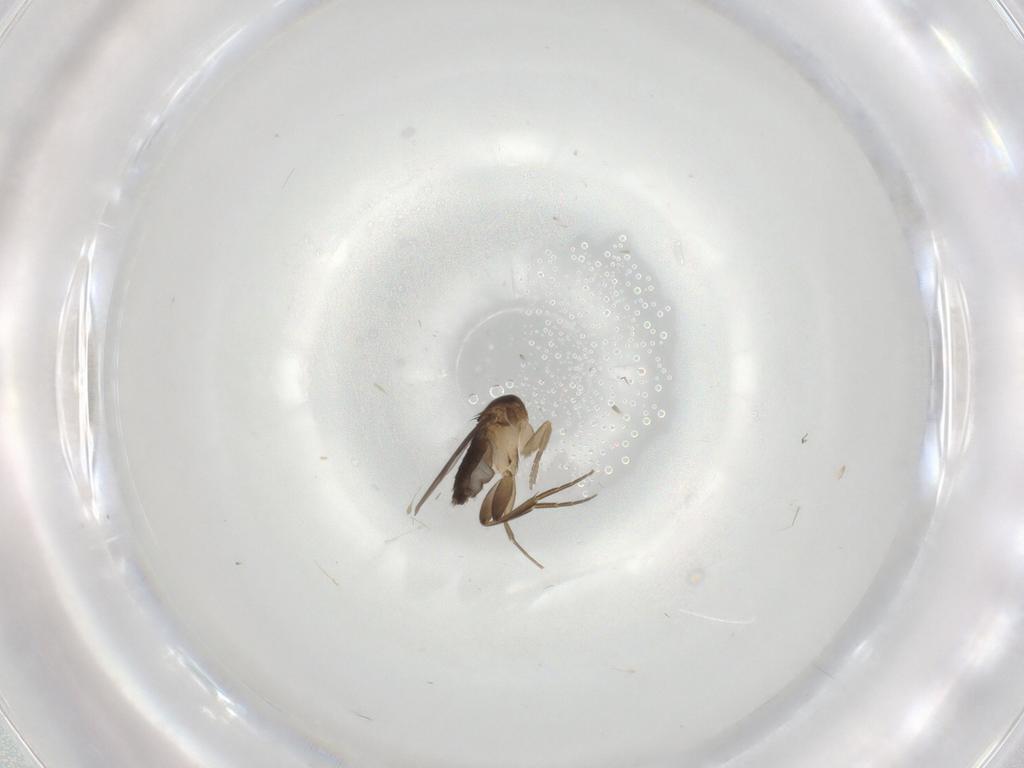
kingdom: Animalia
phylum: Arthropoda
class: Insecta
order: Diptera
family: Phoridae
